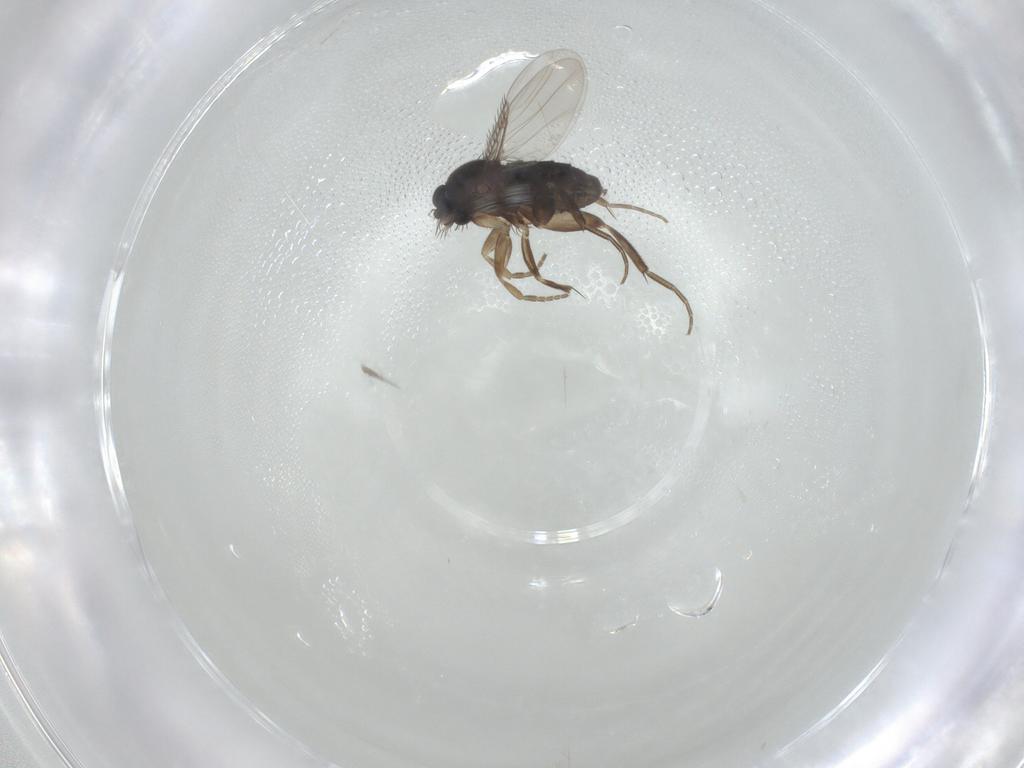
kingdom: Animalia
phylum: Arthropoda
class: Insecta
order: Diptera
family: Phoridae
